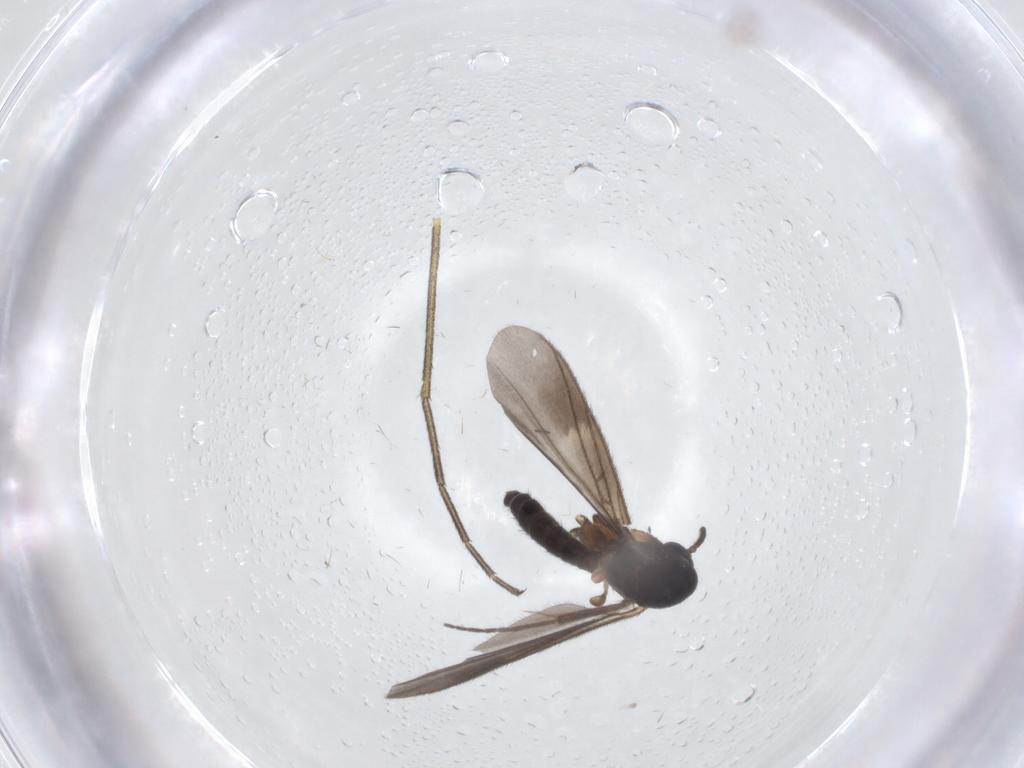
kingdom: Animalia
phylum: Arthropoda
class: Insecta
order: Diptera
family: Mycetophilidae
